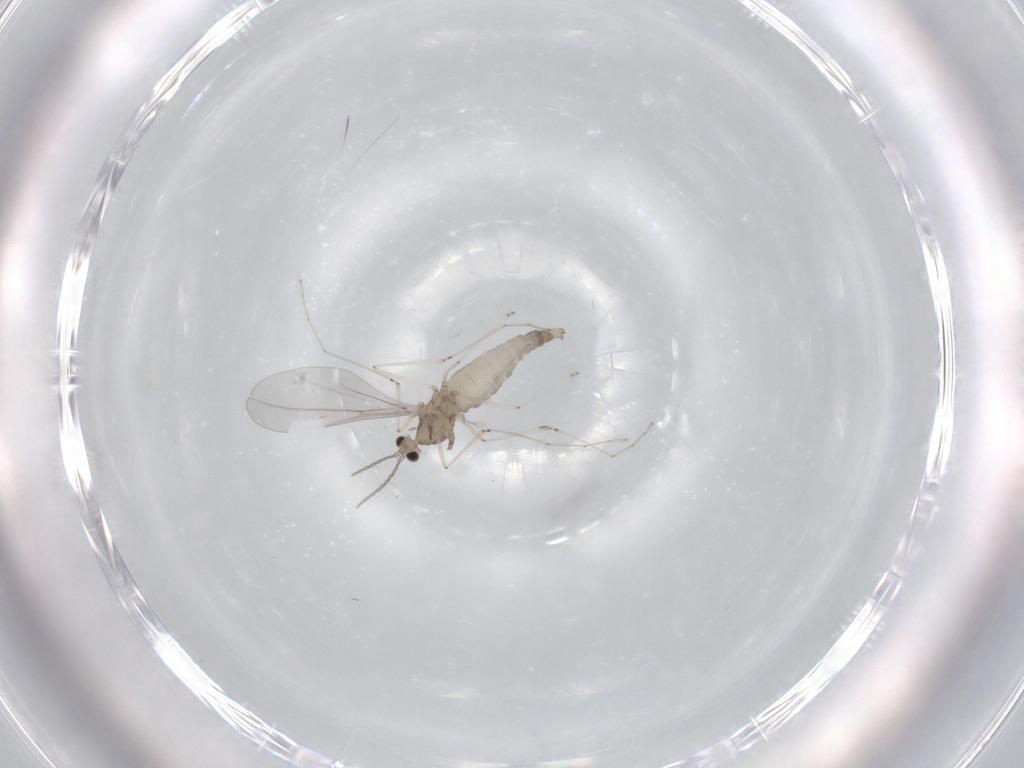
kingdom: Animalia
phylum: Arthropoda
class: Insecta
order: Diptera
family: Cecidomyiidae
